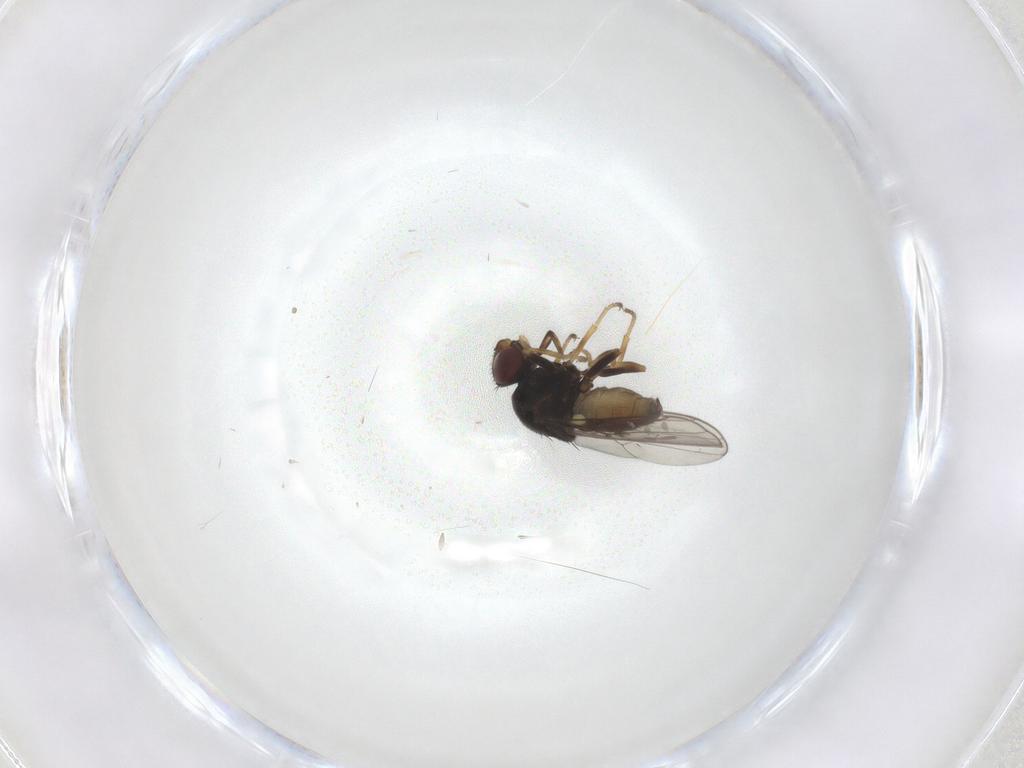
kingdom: Animalia
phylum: Arthropoda
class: Insecta
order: Diptera
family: Chloropidae
